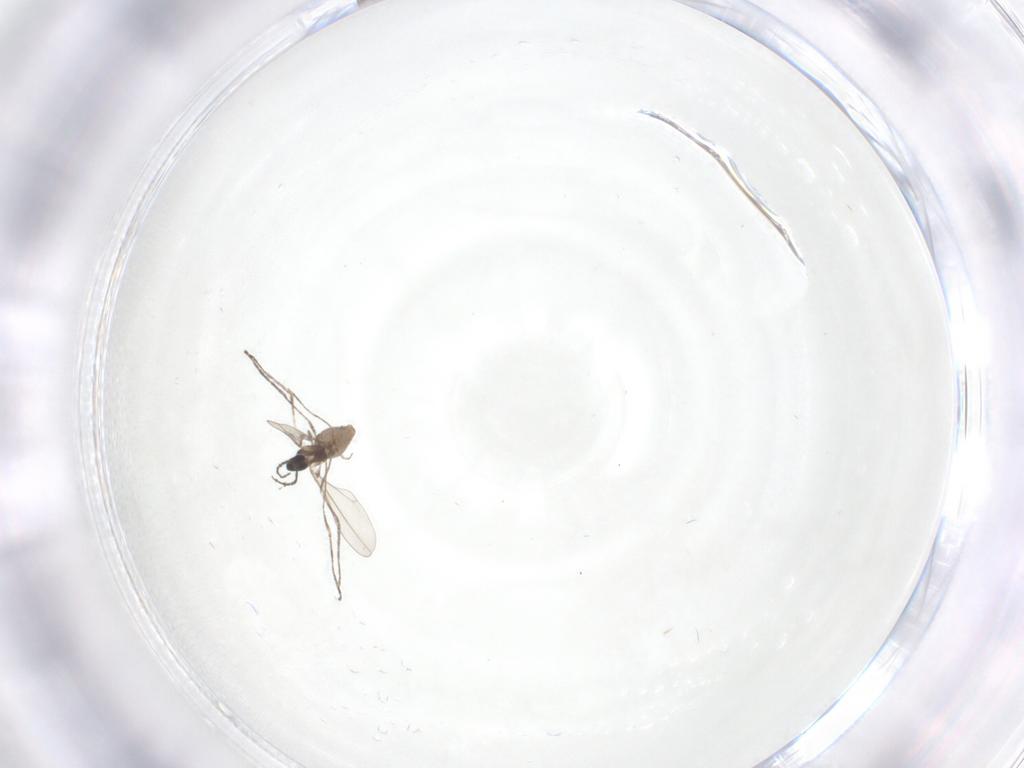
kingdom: Animalia
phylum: Arthropoda
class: Insecta
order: Diptera
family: Cecidomyiidae
